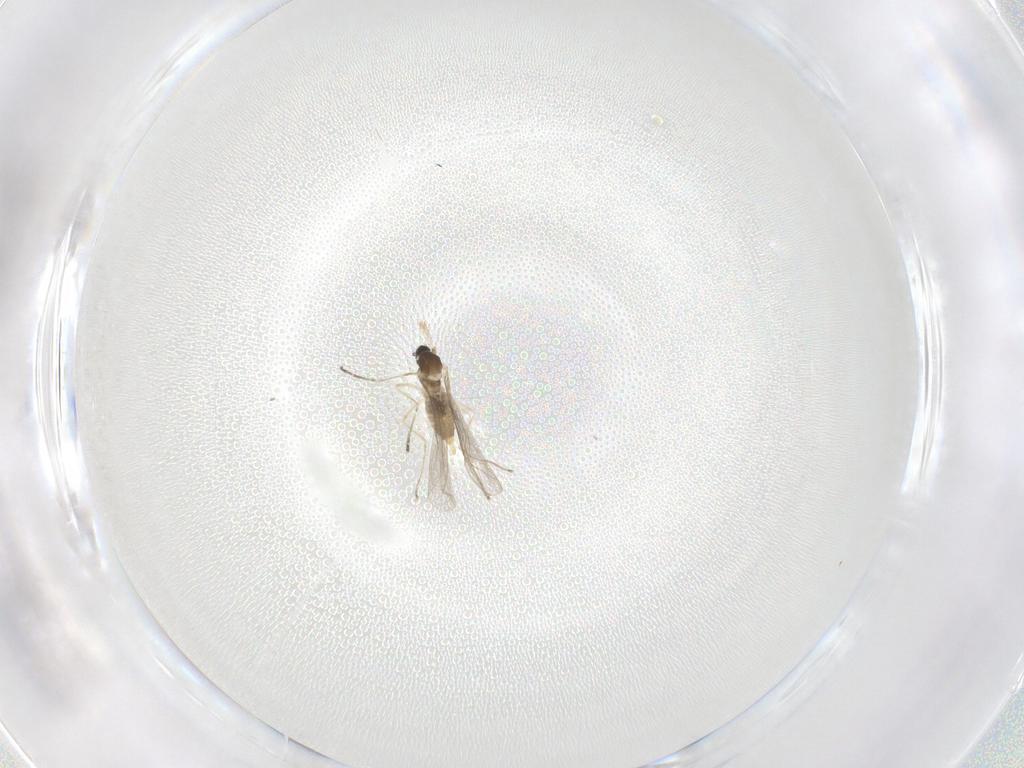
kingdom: Animalia
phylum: Arthropoda
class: Insecta
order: Diptera
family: Cecidomyiidae
